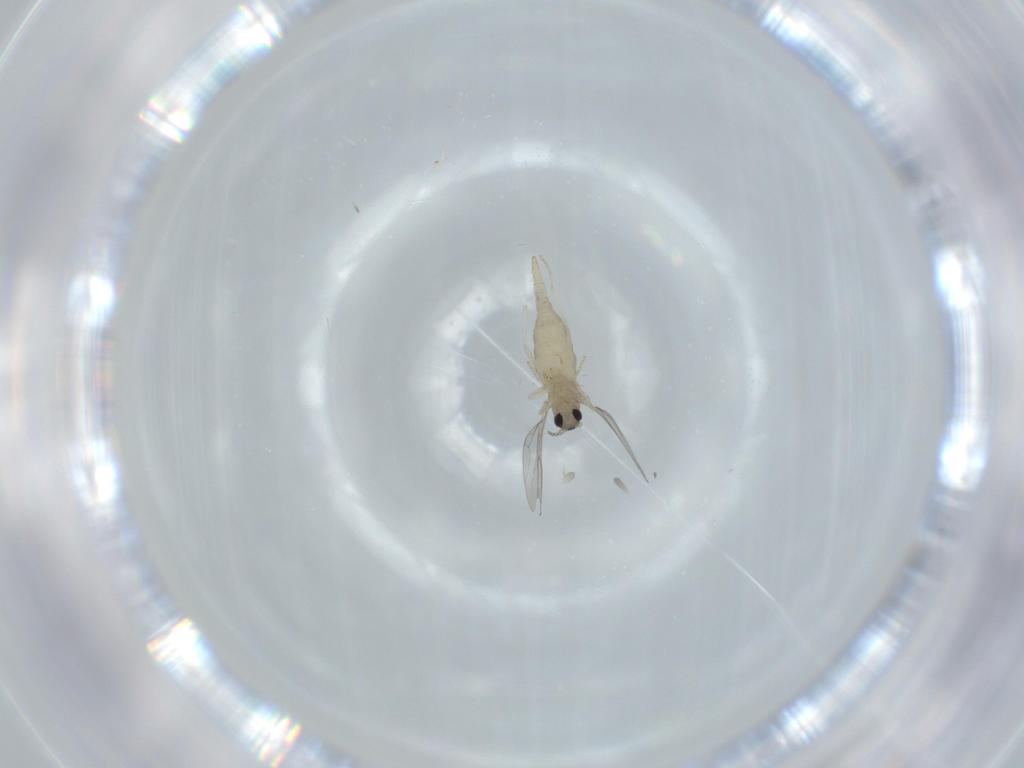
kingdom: Animalia
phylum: Arthropoda
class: Insecta
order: Diptera
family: Cecidomyiidae
